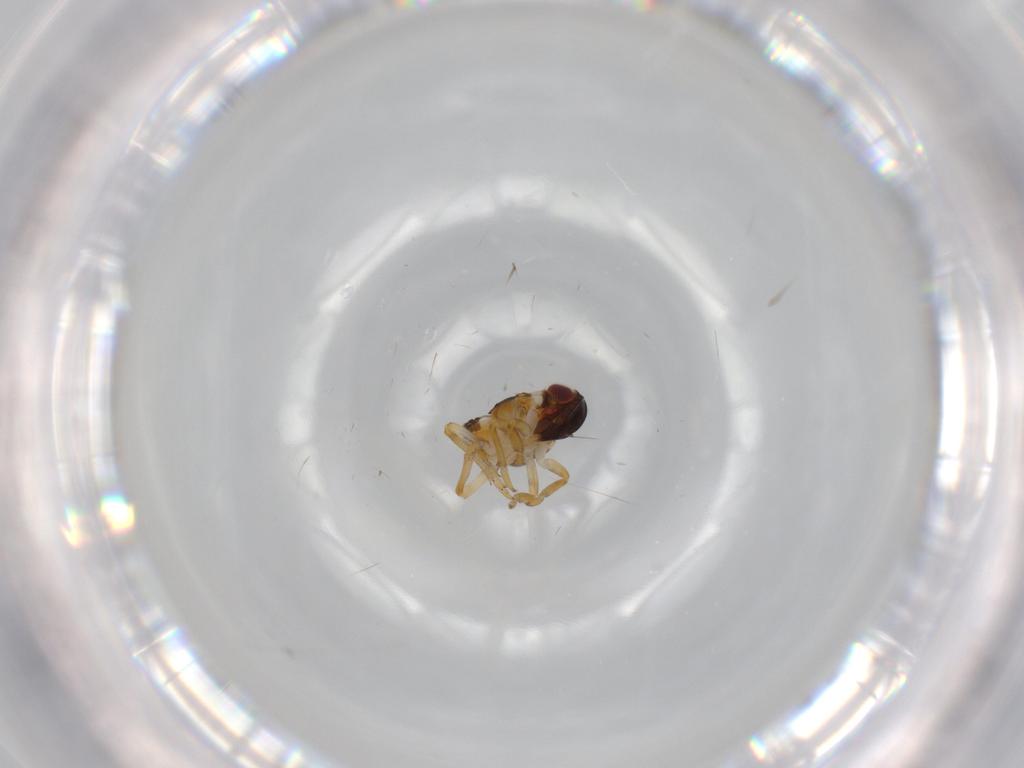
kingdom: Animalia
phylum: Arthropoda
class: Insecta
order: Hemiptera
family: Issidae
